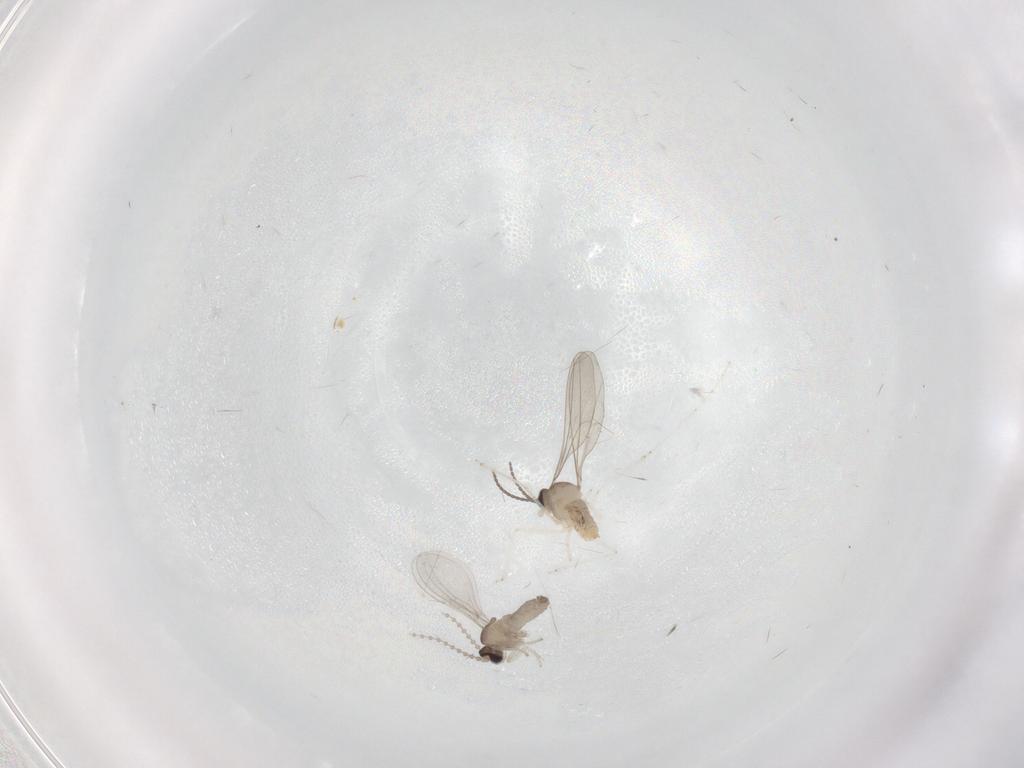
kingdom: Animalia
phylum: Arthropoda
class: Insecta
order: Diptera
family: Cecidomyiidae
